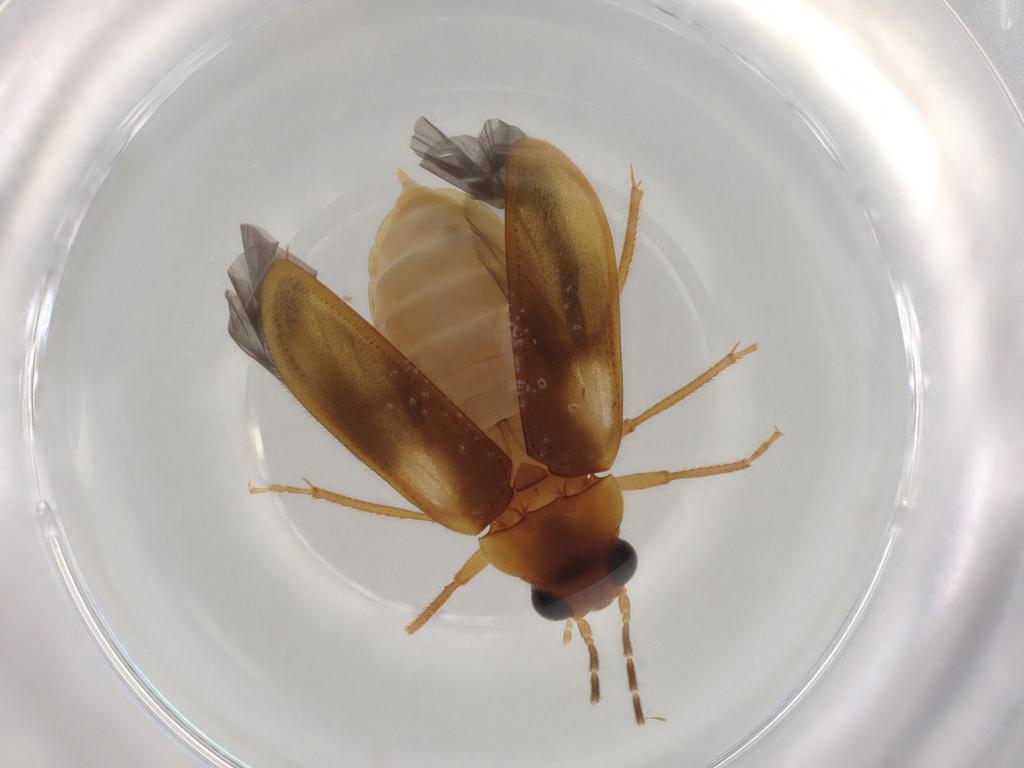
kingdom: Animalia
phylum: Arthropoda
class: Insecta
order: Coleoptera
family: Ptilodactylidae
